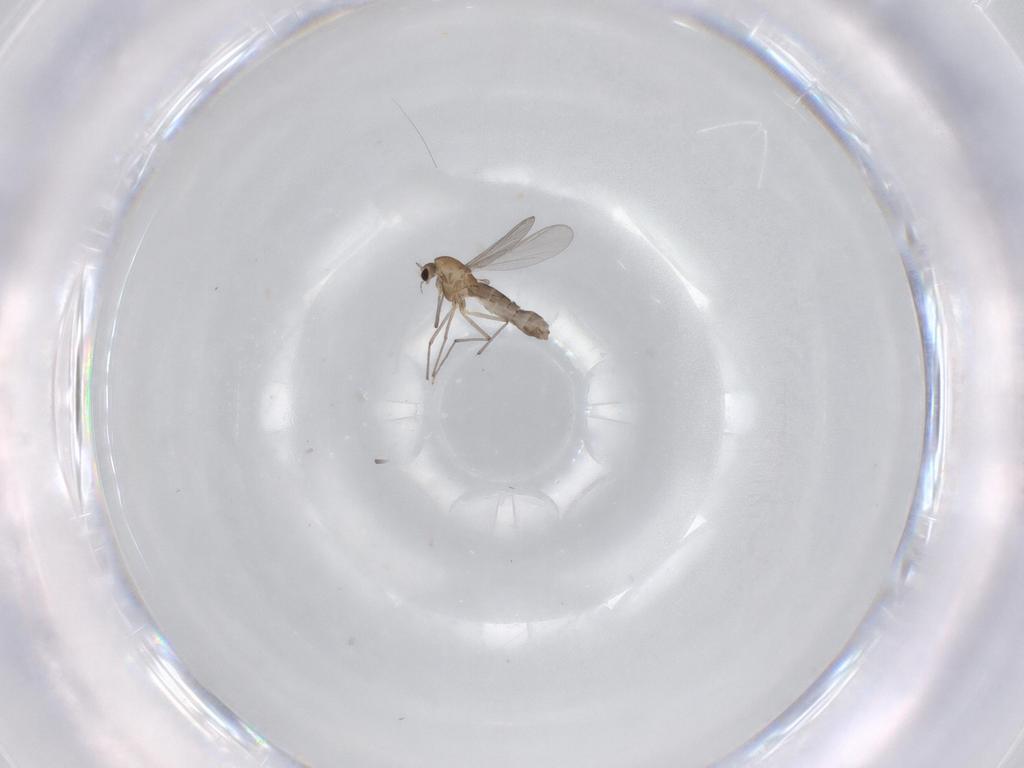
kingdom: Animalia
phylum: Arthropoda
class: Insecta
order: Diptera
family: Chironomidae
